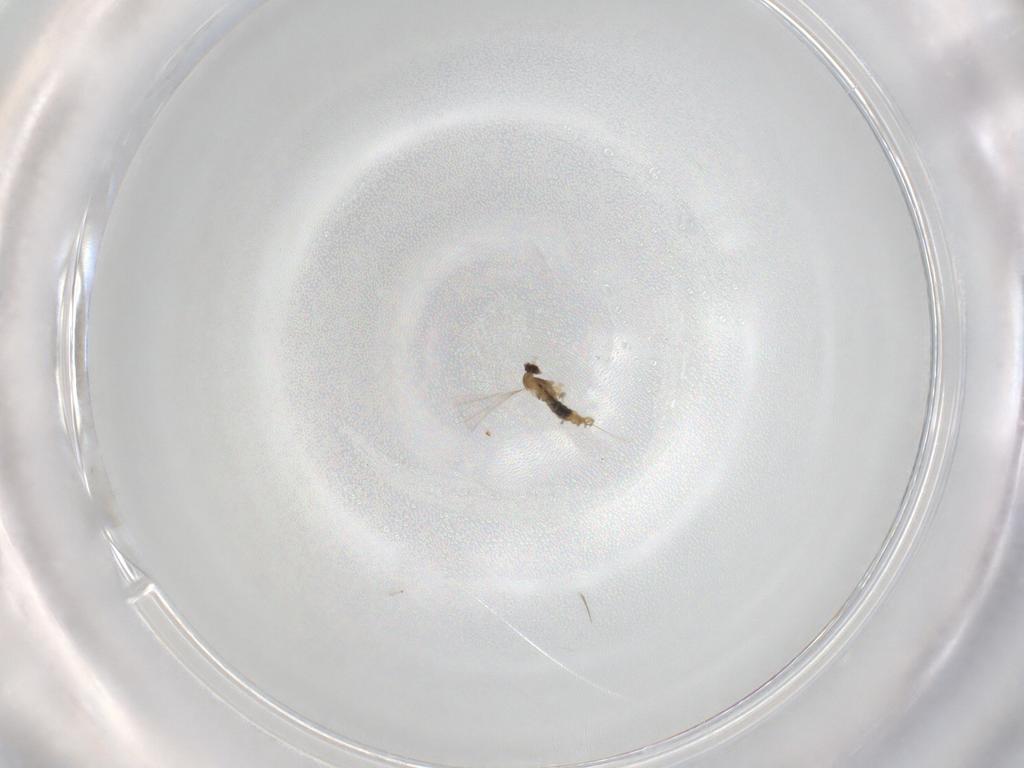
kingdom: Animalia
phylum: Arthropoda
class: Insecta
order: Diptera
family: Cecidomyiidae
